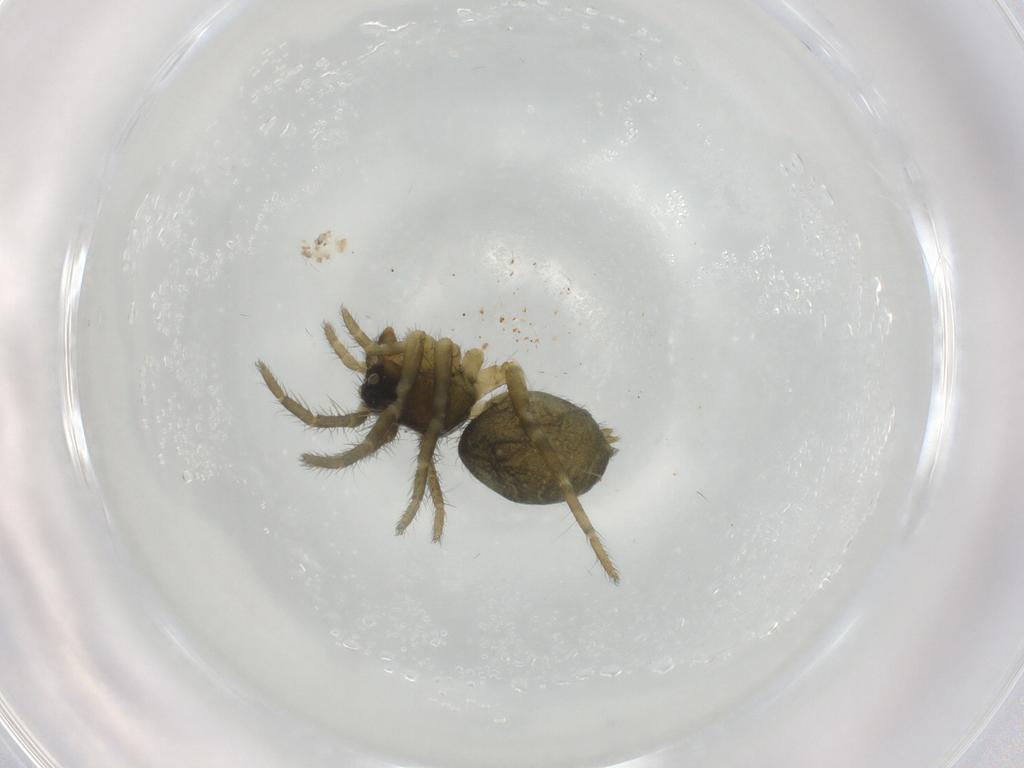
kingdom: Animalia
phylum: Arthropoda
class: Arachnida
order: Araneae
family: Lycosidae
